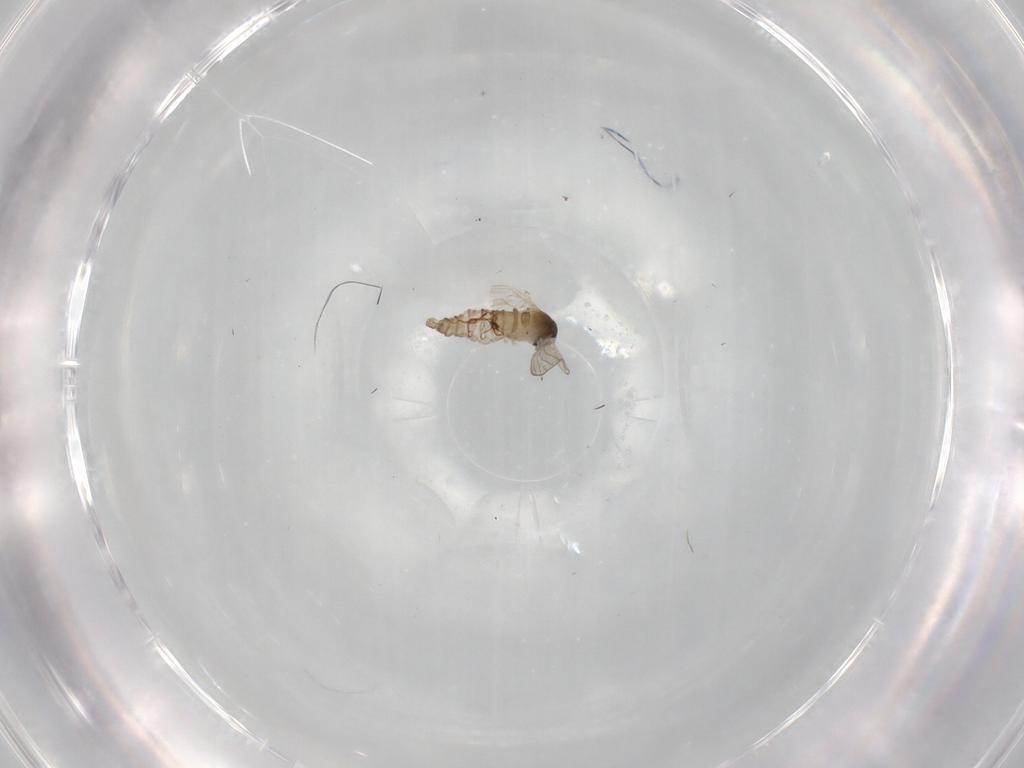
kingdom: Animalia
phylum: Arthropoda
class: Insecta
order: Diptera
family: Psychodidae
